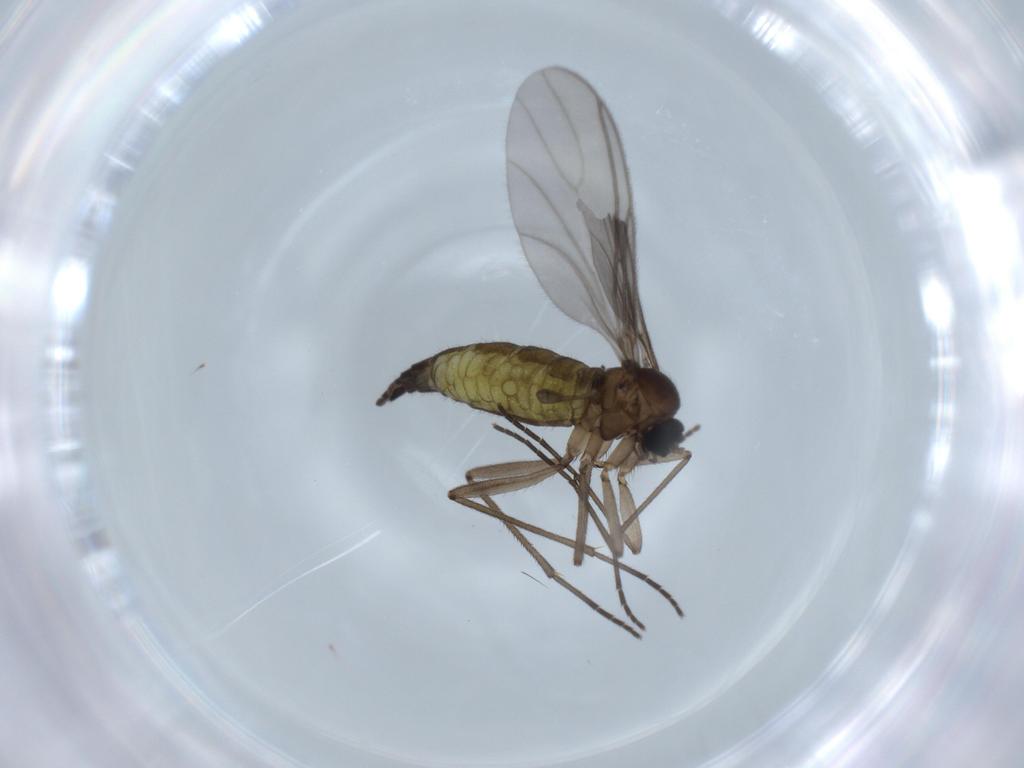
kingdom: Animalia
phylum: Arthropoda
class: Insecta
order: Diptera
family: Sciaridae
